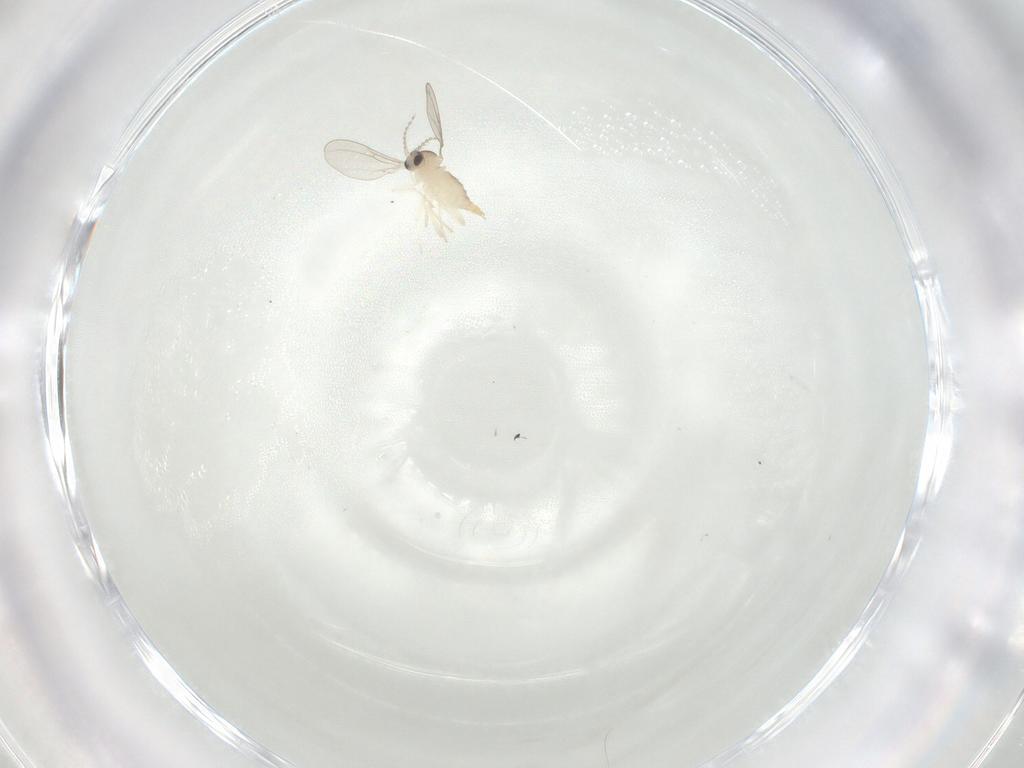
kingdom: Animalia
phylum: Arthropoda
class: Insecta
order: Diptera
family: Cecidomyiidae
